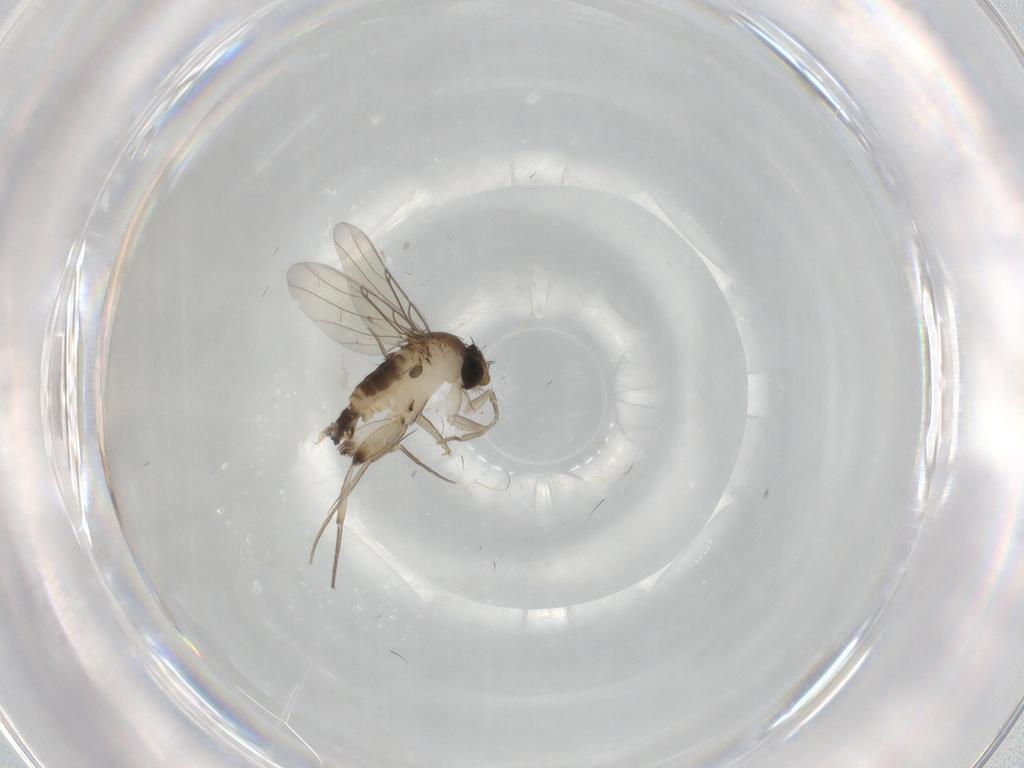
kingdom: Animalia
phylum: Arthropoda
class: Insecta
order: Diptera
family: Phoridae
